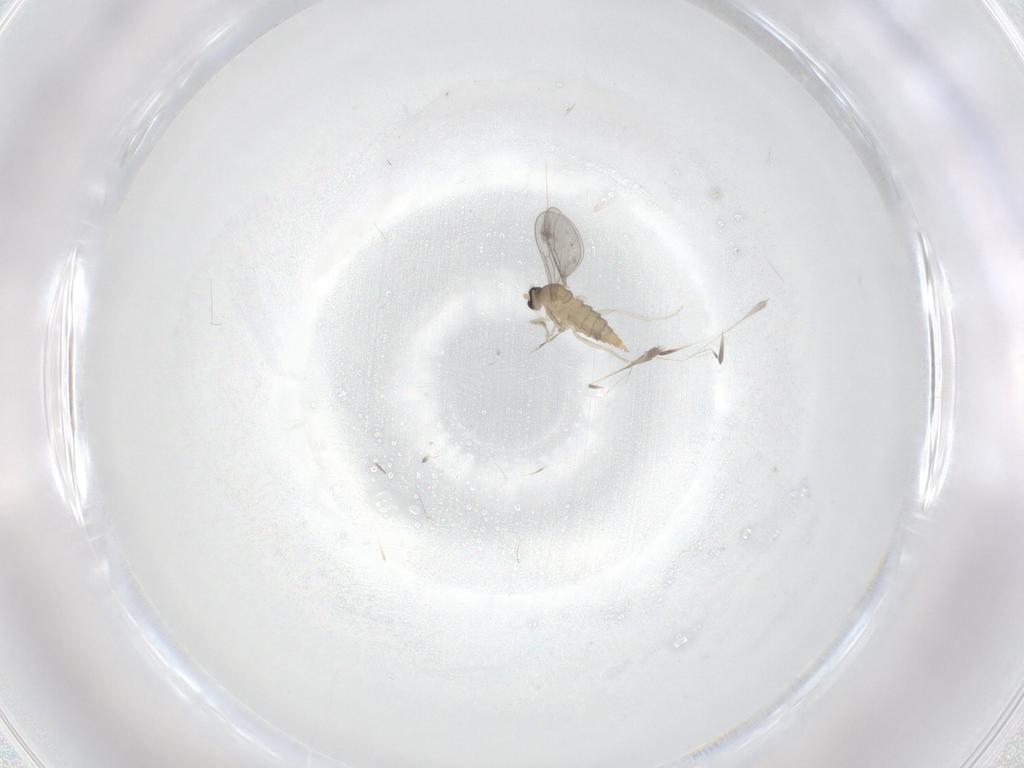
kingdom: Animalia
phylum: Arthropoda
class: Insecta
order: Diptera
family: Cecidomyiidae
